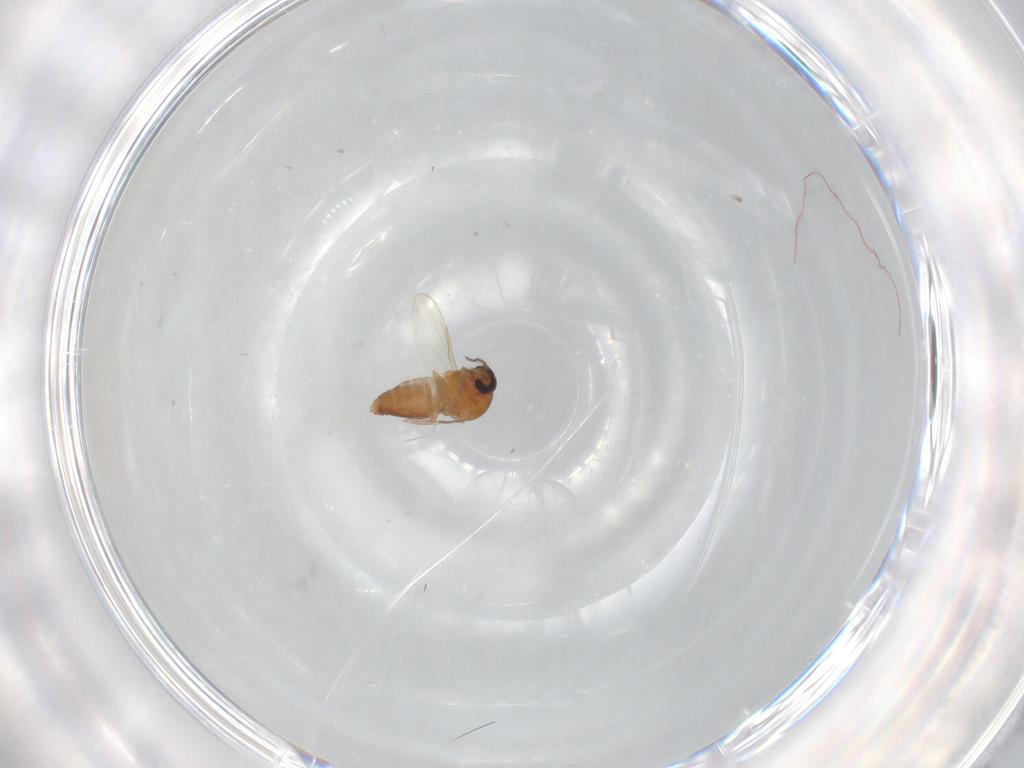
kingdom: Animalia
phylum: Arthropoda
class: Insecta
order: Diptera
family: Ceratopogonidae
